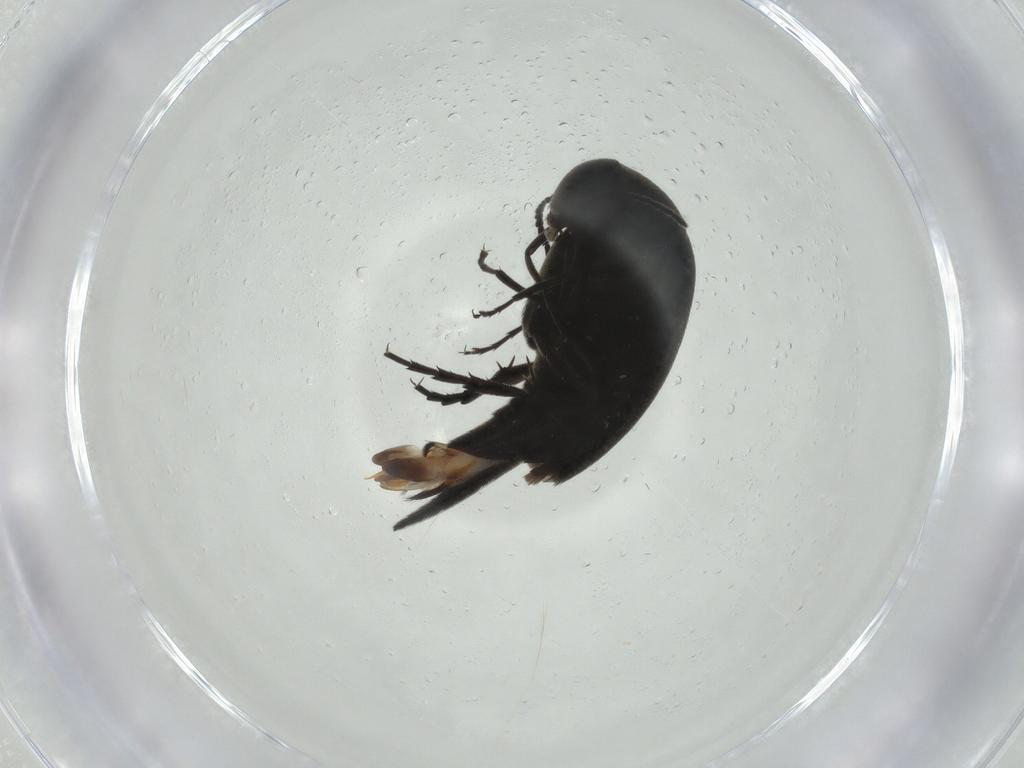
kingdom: Animalia
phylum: Arthropoda
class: Insecta
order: Coleoptera
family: Mordellidae
